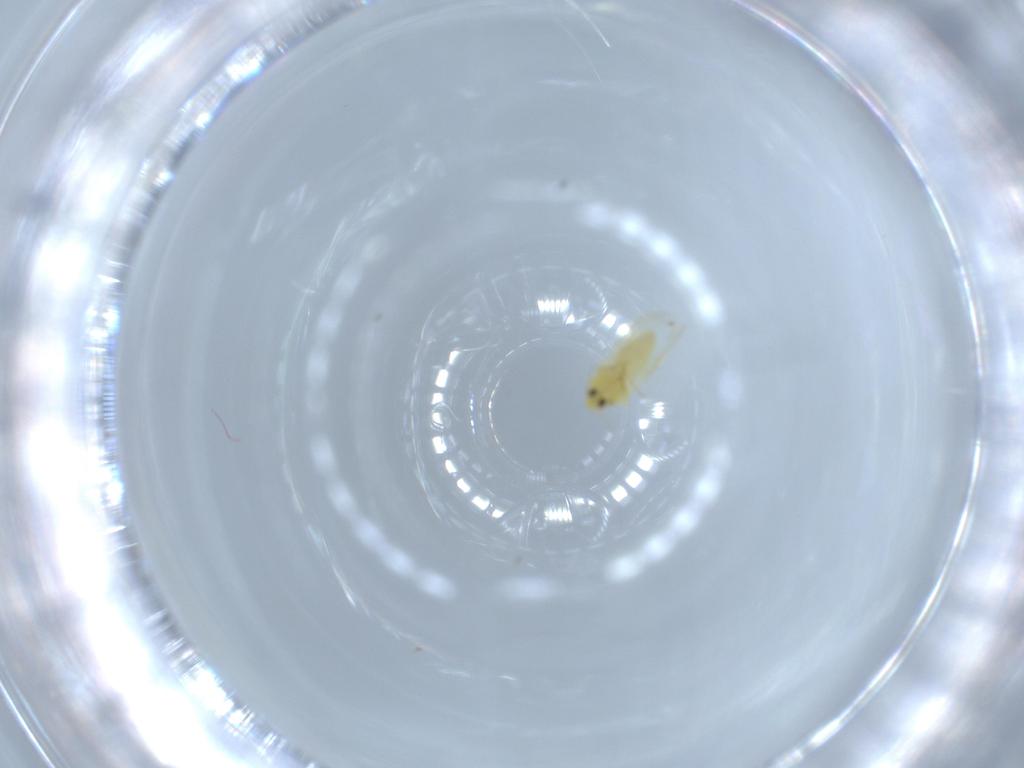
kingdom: Animalia
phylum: Arthropoda
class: Insecta
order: Hemiptera
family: Aleyrodidae
